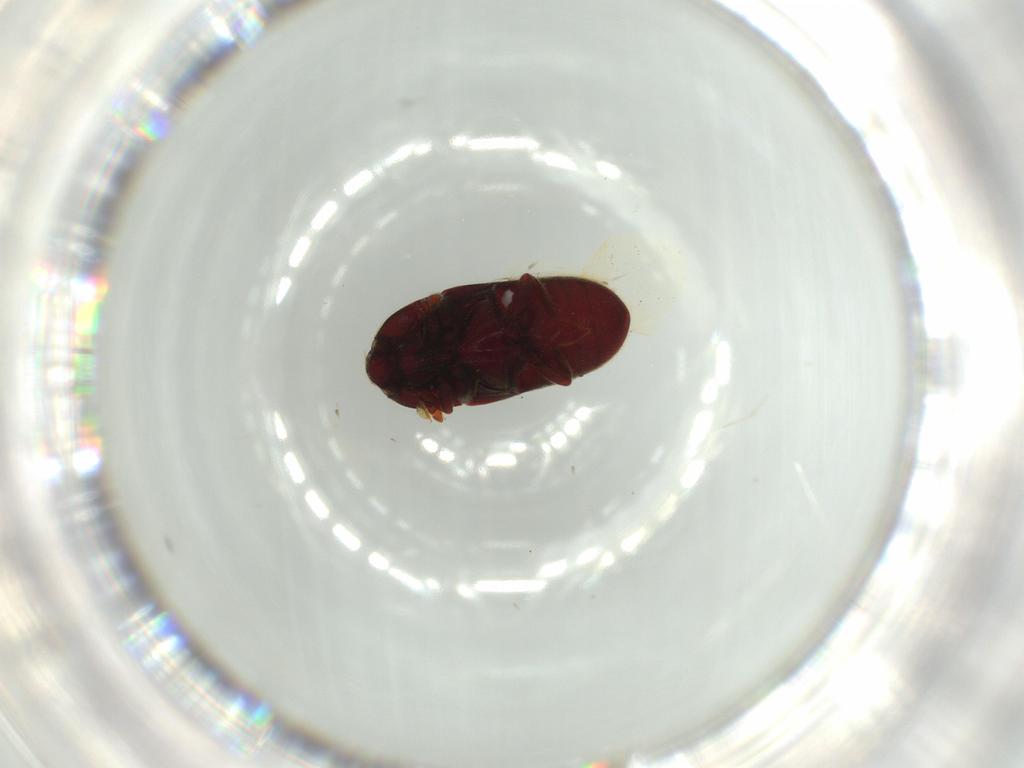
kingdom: Animalia
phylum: Arthropoda
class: Insecta
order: Coleoptera
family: Throscidae
